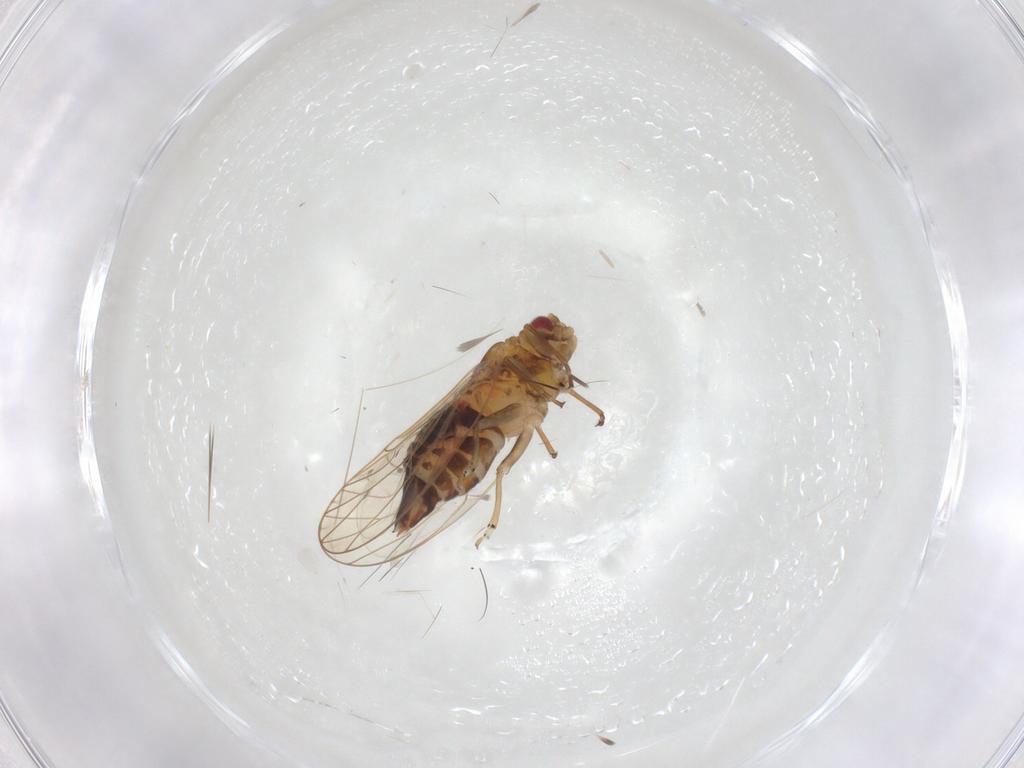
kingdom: Animalia
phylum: Arthropoda
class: Insecta
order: Hemiptera
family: Psyllidae
